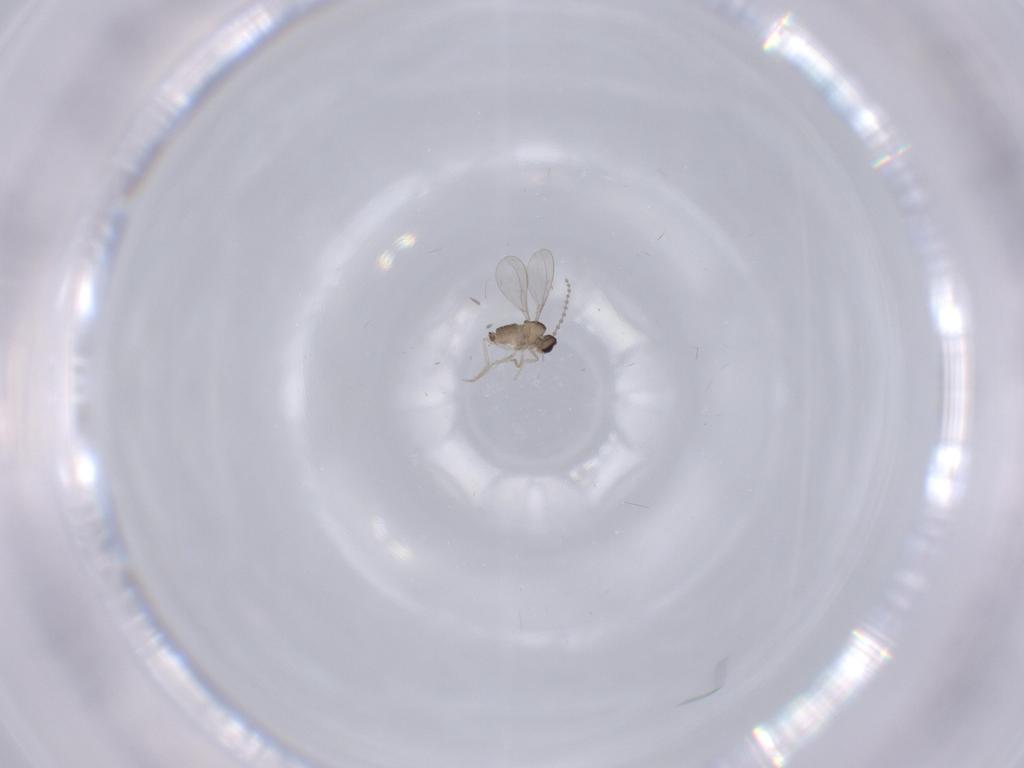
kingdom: Animalia
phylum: Arthropoda
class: Insecta
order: Diptera
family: Cecidomyiidae
